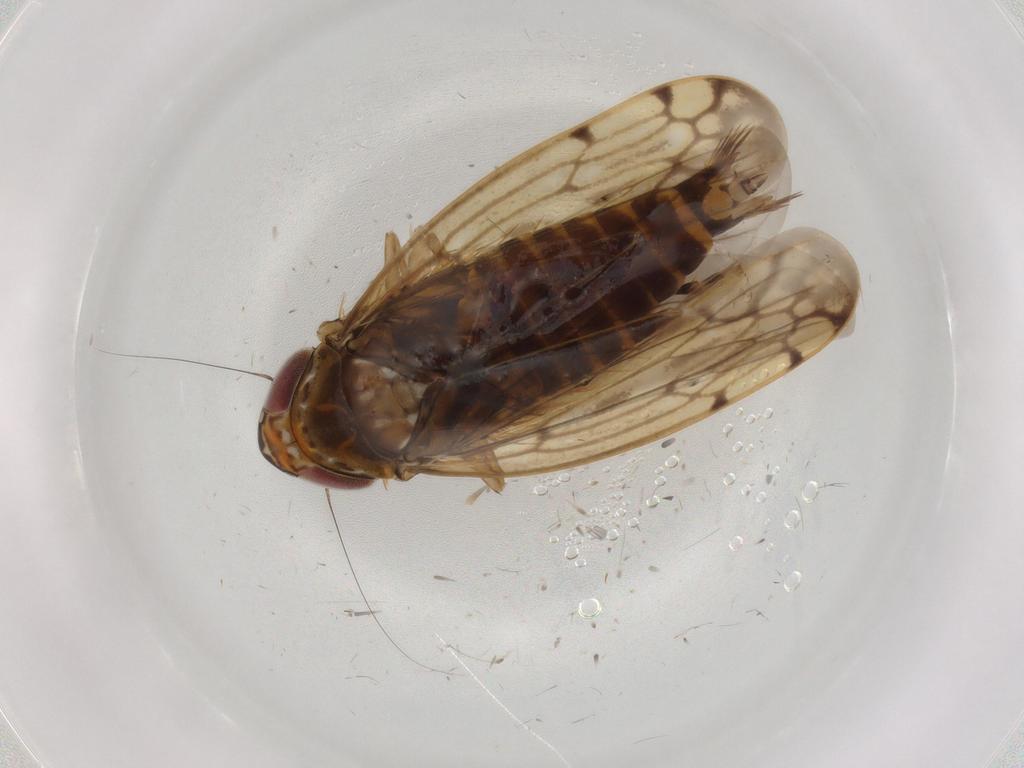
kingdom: Animalia
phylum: Arthropoda
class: Insecta
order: Hemiptera
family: Cicadellidae
